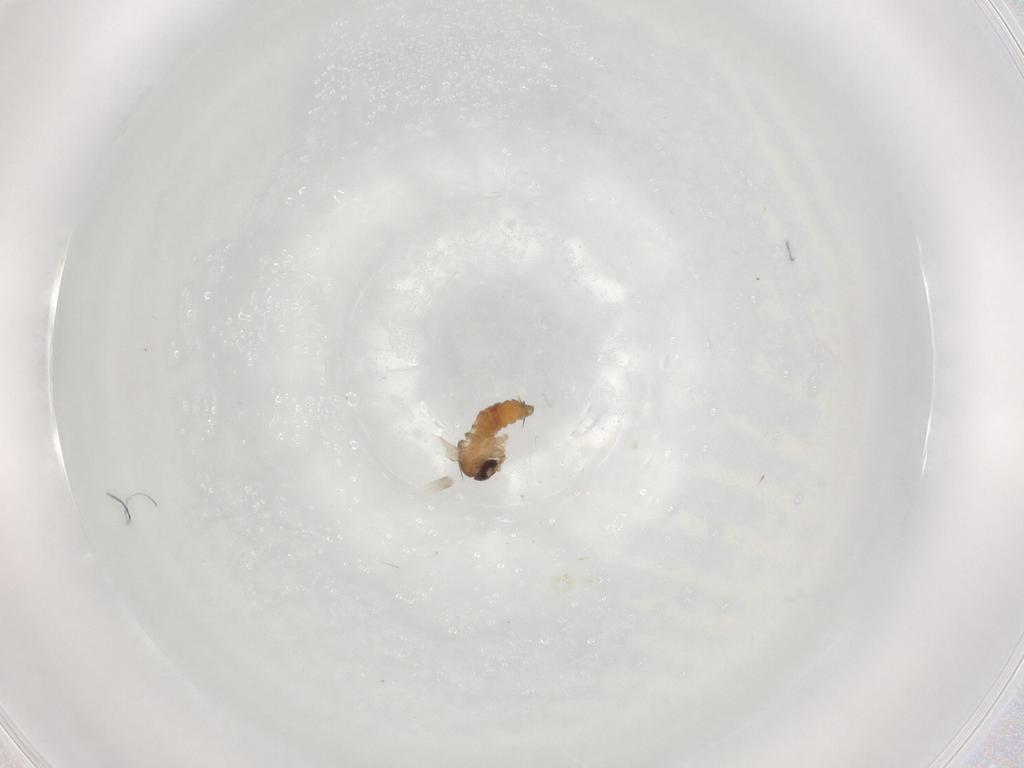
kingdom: Animalia
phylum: Arthropoda
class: Insecta
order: Diptera
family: Psychodidae
